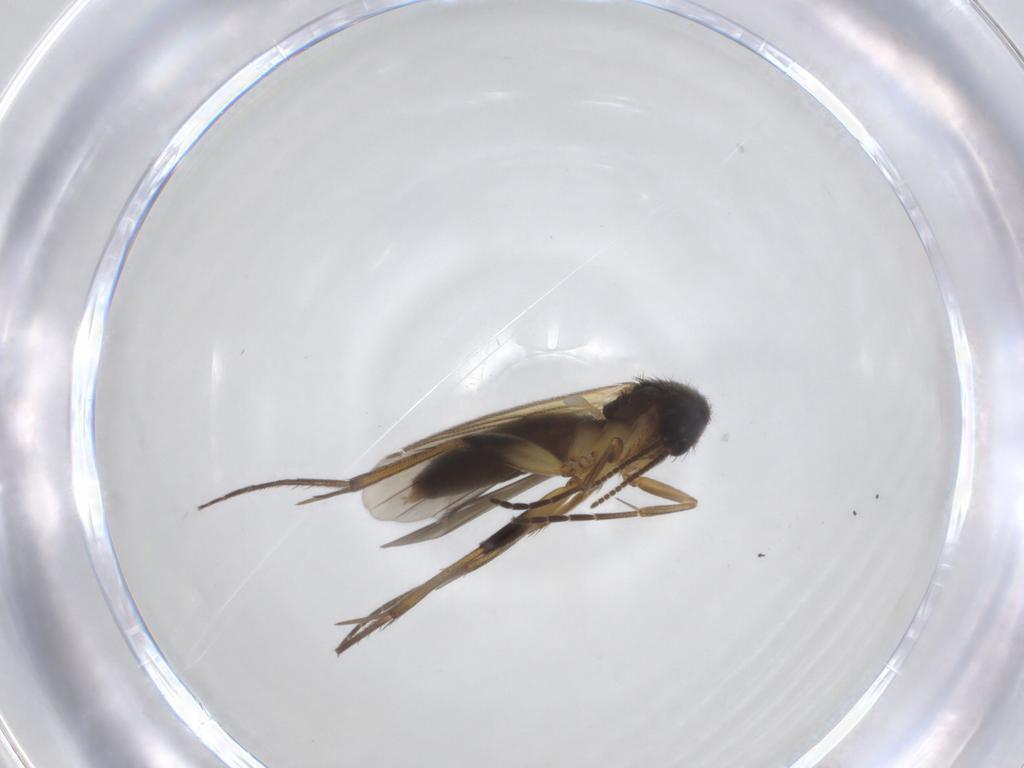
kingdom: Animalia
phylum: Arthropoda
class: Insecta
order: Diptera
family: Mycetophilidae
